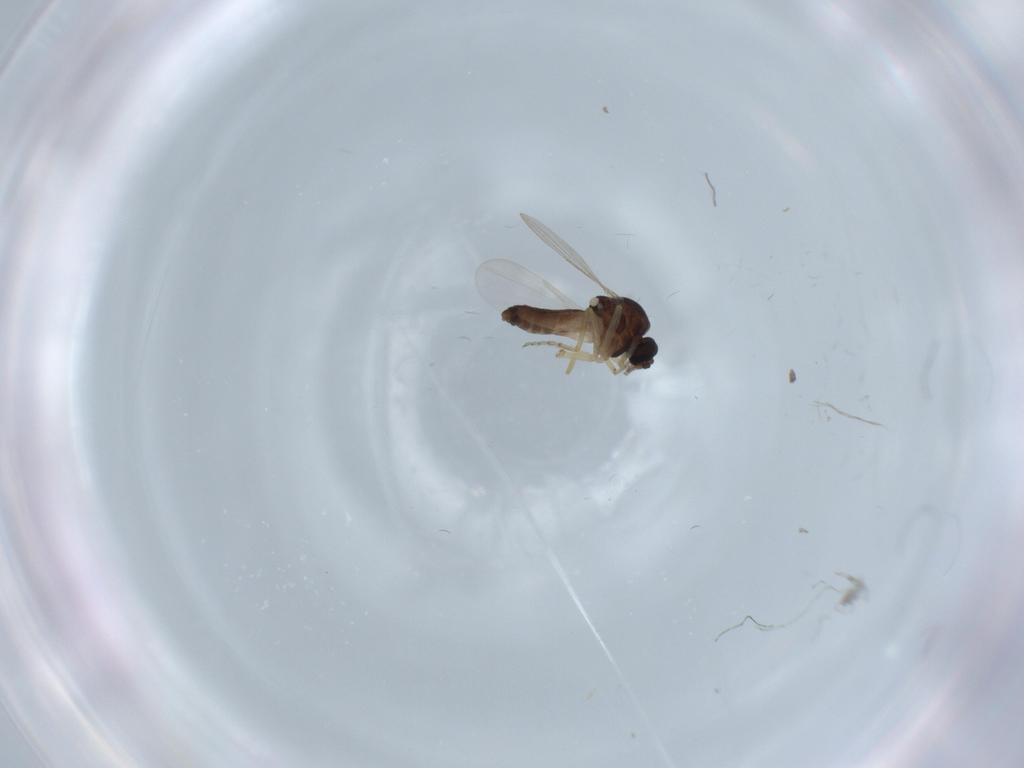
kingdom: Animalia
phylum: Arthropoda
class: Insecta
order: Diptera
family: Ceratopogonidae
